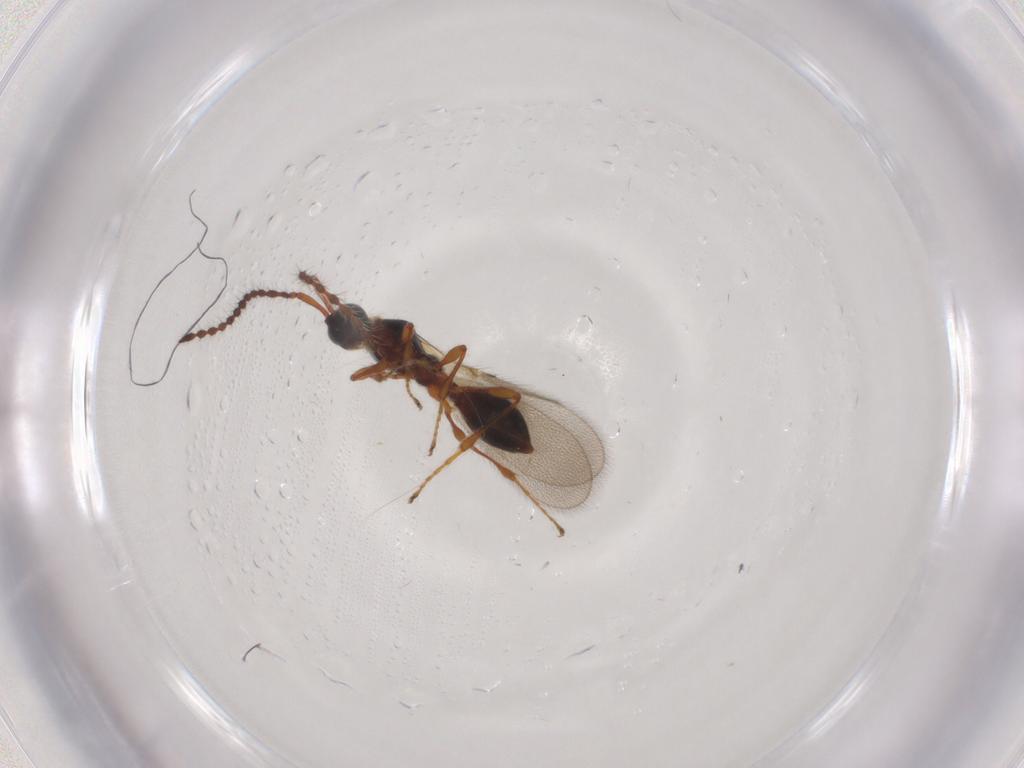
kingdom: Animalia
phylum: Arthropoda
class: Insecta
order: Hymenoptera
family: Diapriidae
